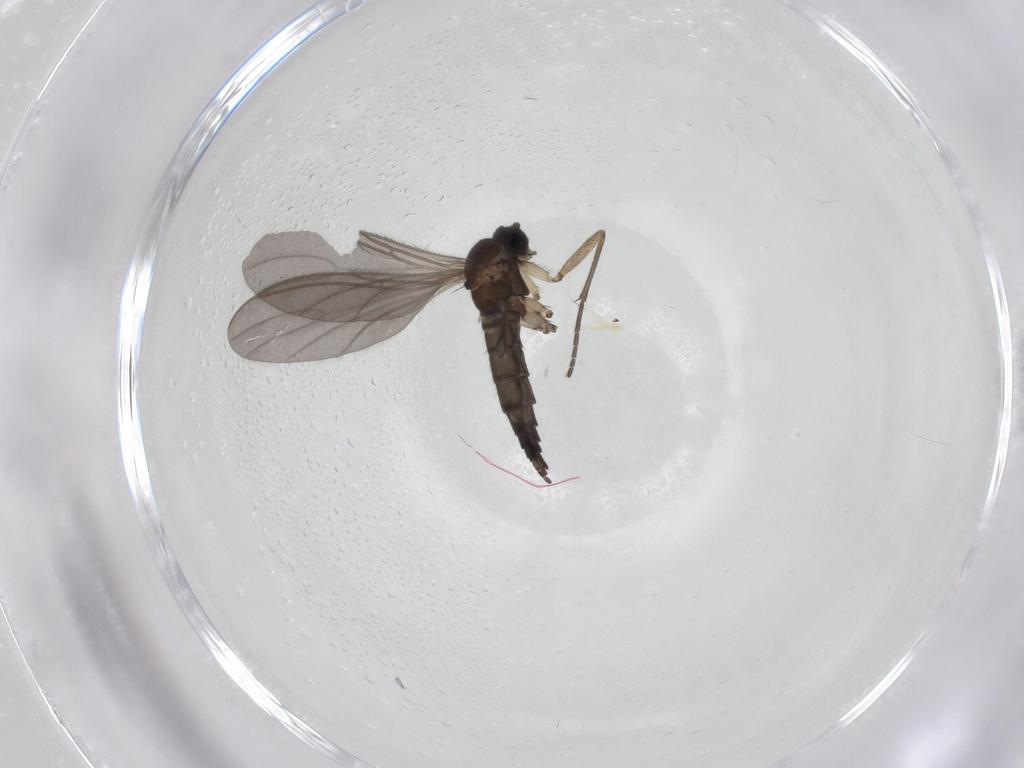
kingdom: Animalia
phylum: Arthropoda
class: Insecta
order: Diptera
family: Sciaridae
